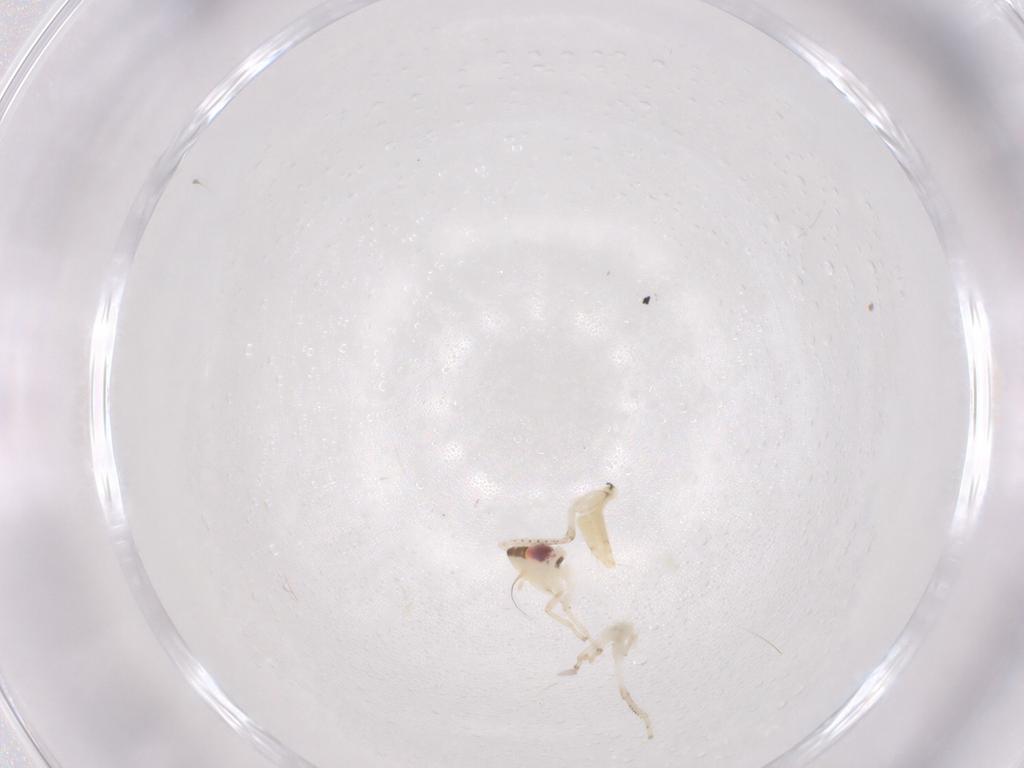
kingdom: Animalia
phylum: Arthropoda
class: Insecta
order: Hemiptera
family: Cicadellidae
